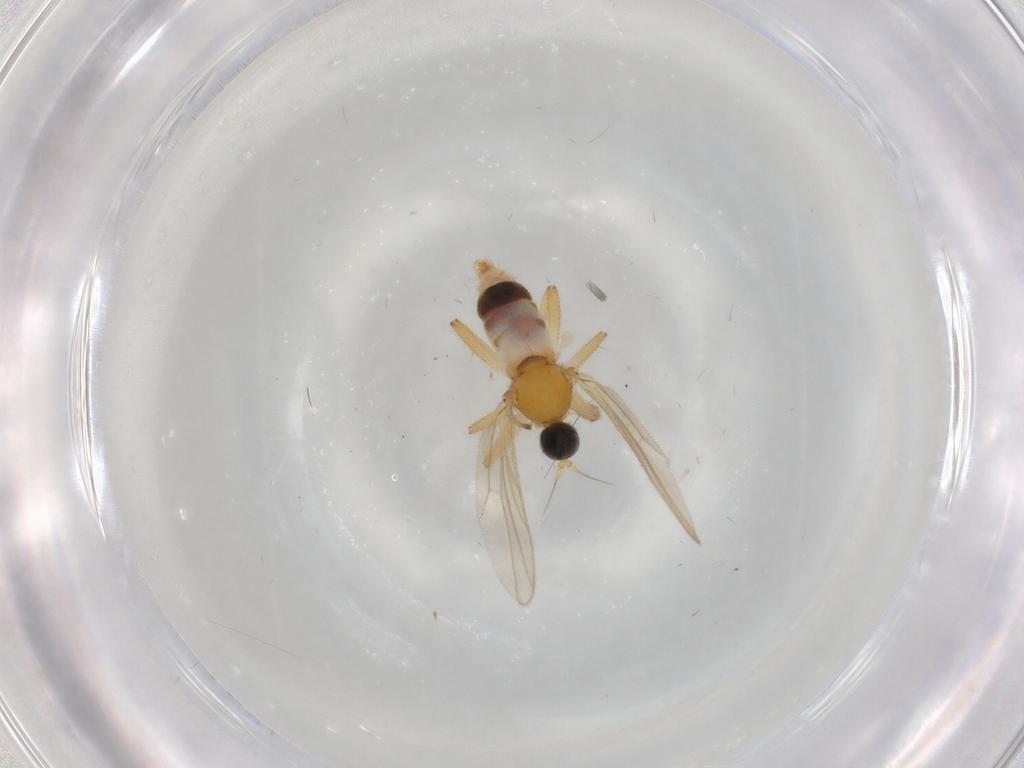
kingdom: Animalia
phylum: Arthropoda
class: Insecta
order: Diptera
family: Hybotidae
